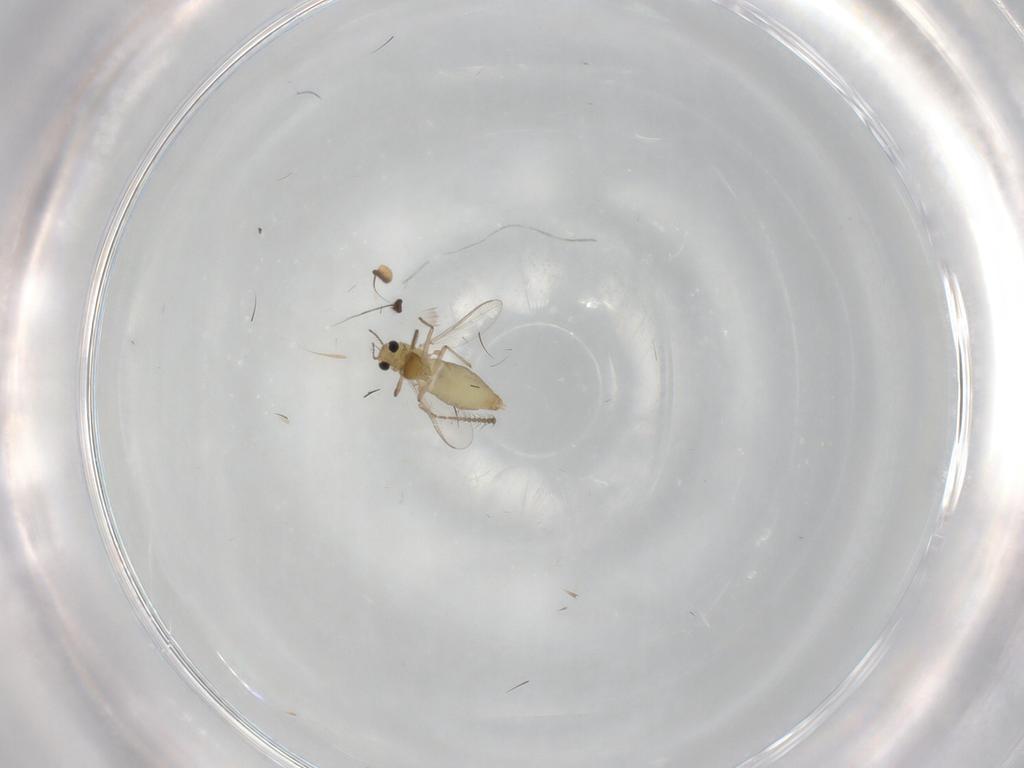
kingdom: Animalia
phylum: Arthropoda
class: Insecta
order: Diptera
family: Chironomidae
